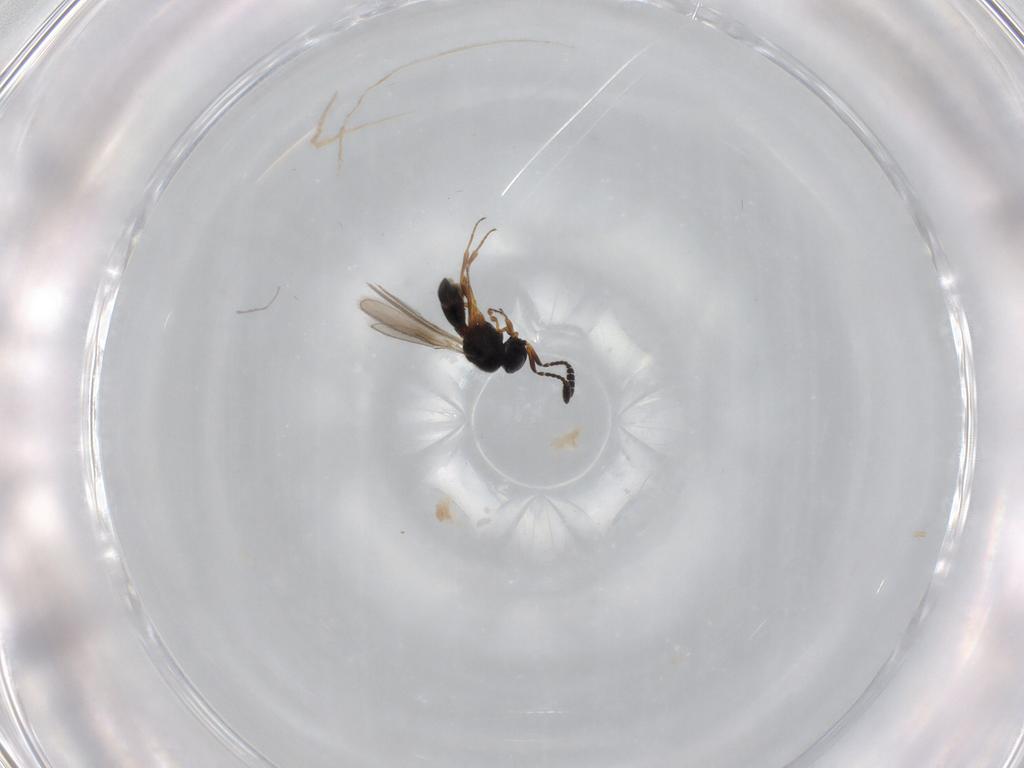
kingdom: Animalia
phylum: Arthropoda
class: Insecta
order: Hymenoptera
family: Scelionidae
